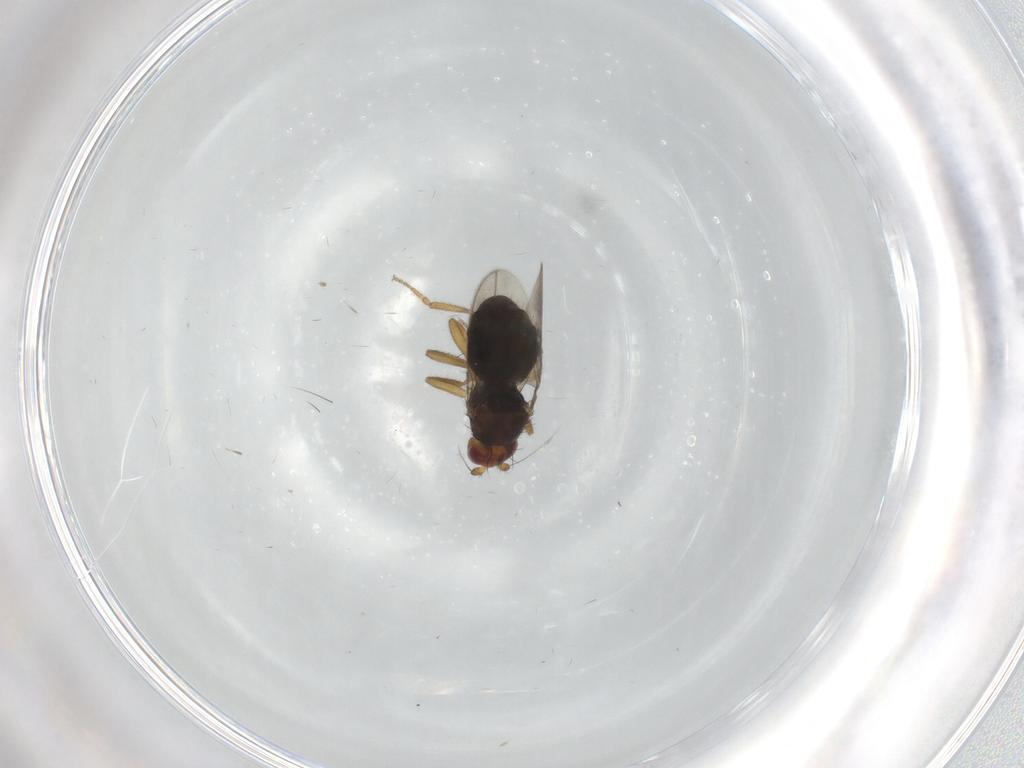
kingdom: Animalia
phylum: Arthropoda
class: Insecta
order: Diptera
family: Sphaeroceridae
